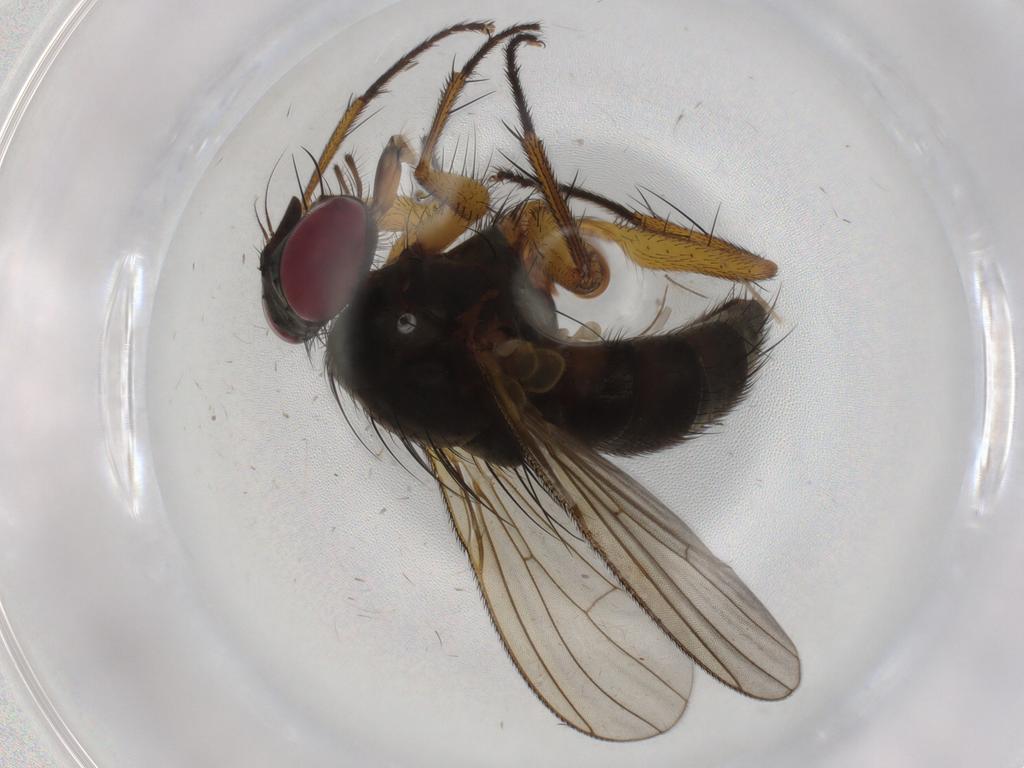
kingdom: Animalia
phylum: Arthropoda
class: Insecta
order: Diptera
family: Muscidae
